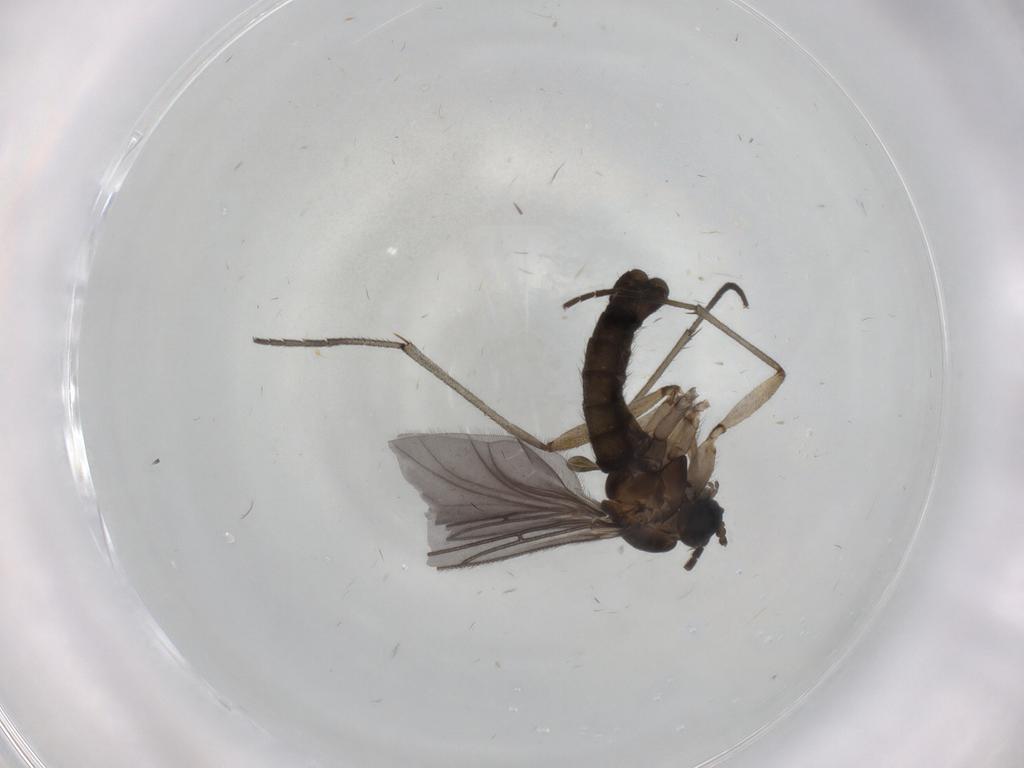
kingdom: Animalia
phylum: Arthropoda
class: Insecta
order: Diptera
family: Sciaridae
